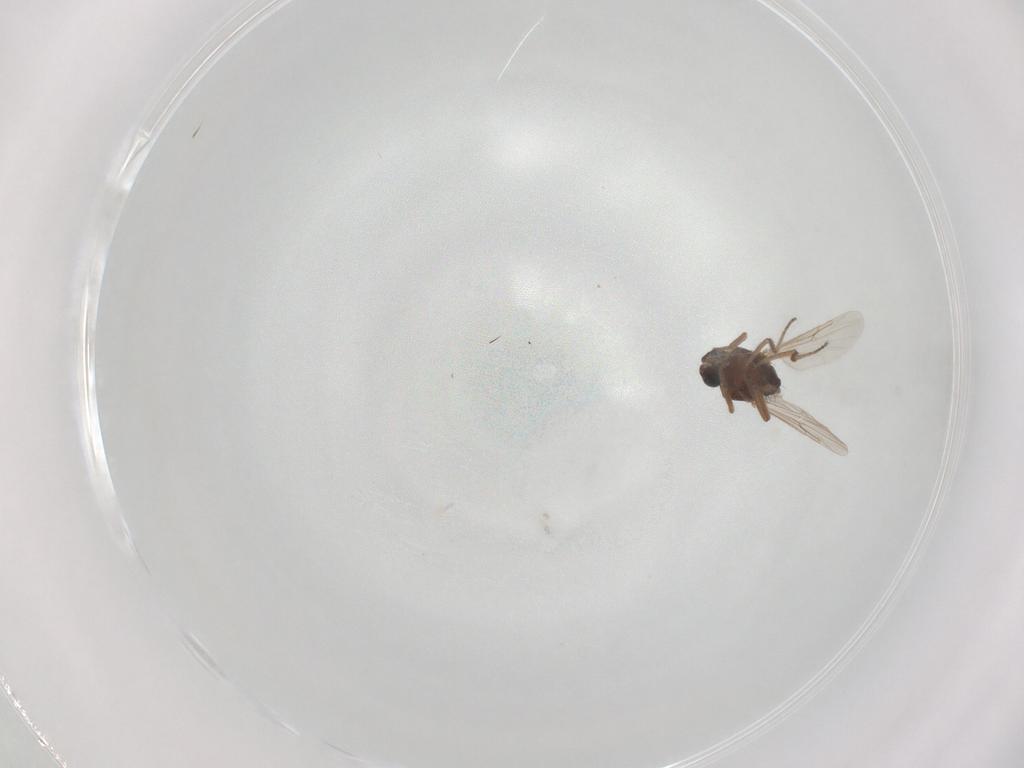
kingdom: Animalia
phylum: Arthropoda
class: Insecta
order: Diptera
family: Ceratopogonidae
